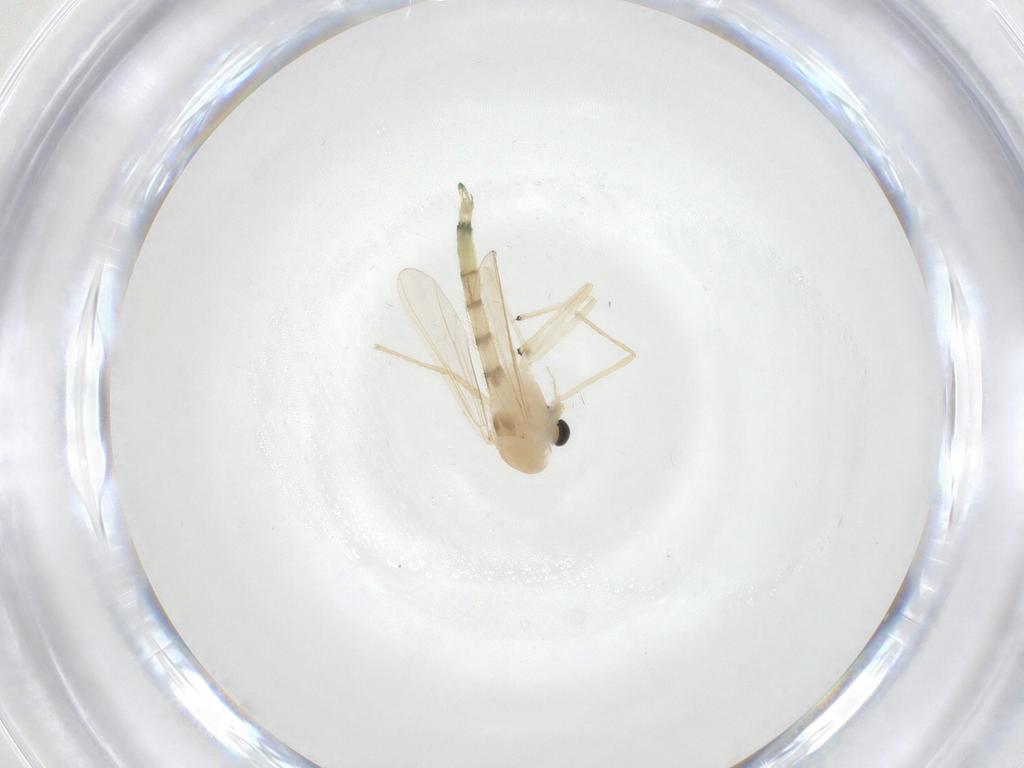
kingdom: Animalia
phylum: Arthropoda
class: Insecta
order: Diptera
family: Chironomidae
